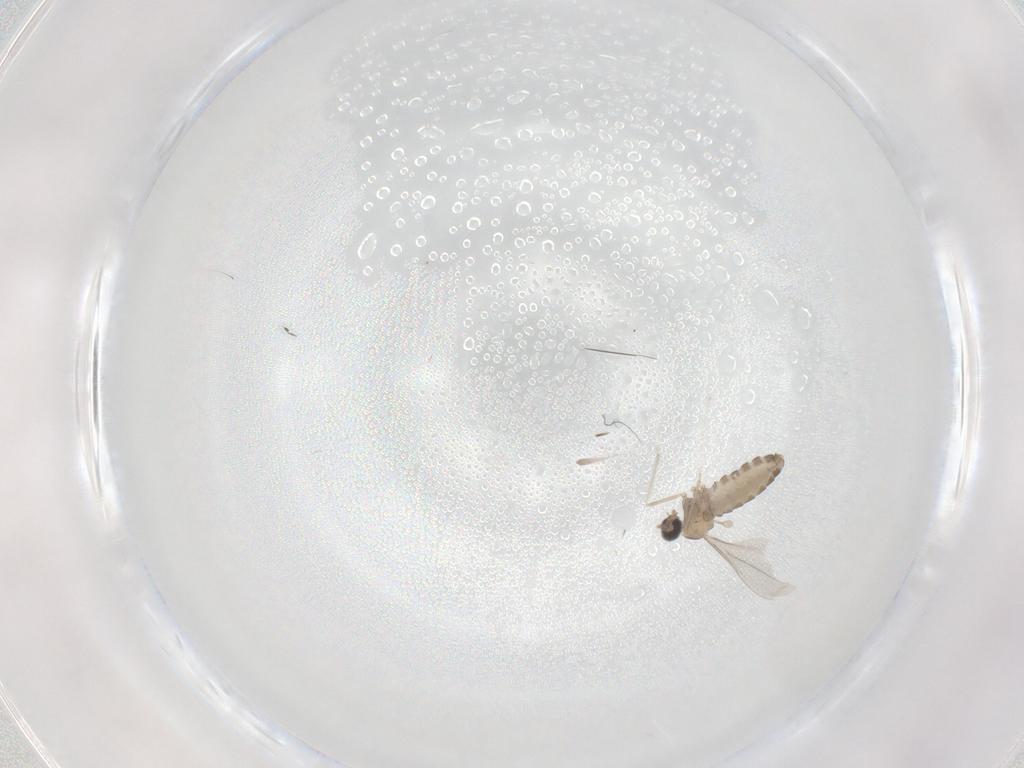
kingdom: Animalia
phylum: Arthropoda
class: Insecta
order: Diptera
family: Cecidomyiidae
